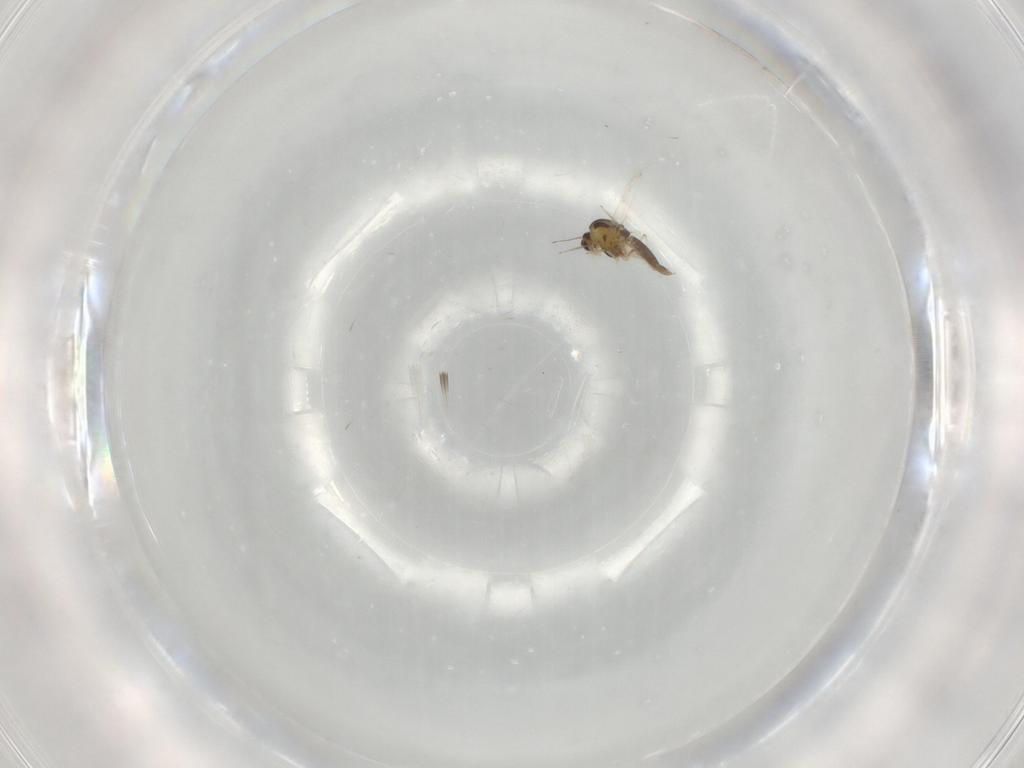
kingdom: Animalia
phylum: Arthropoda
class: Insecta
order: Diptera
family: Chironomidae
